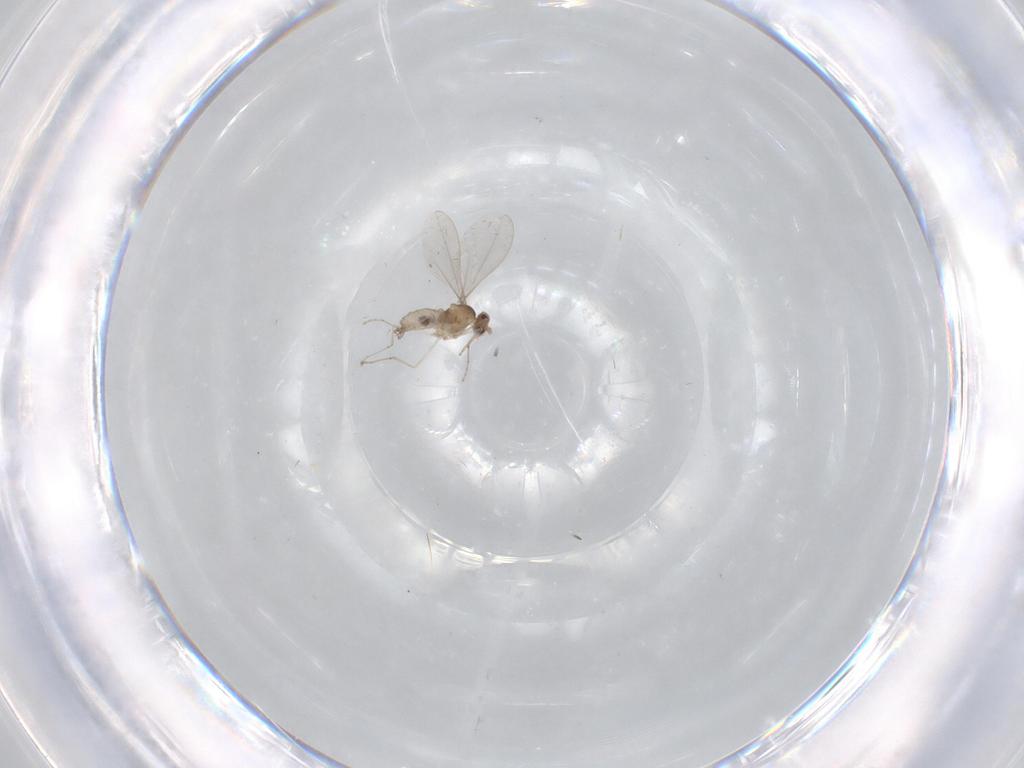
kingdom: Animalia
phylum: Arthropoda
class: Insecta
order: Diptera
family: Cecidomyiidae
